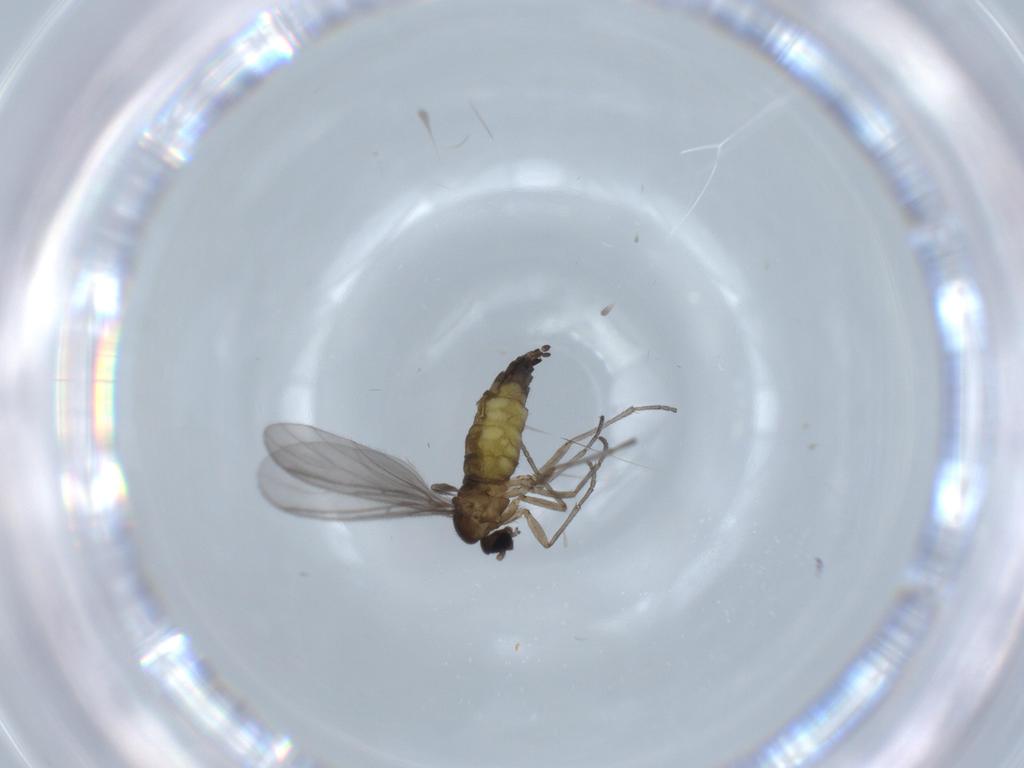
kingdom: Animalia
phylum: Arthropoda
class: Insecta
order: Diptera
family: Sciaridae
